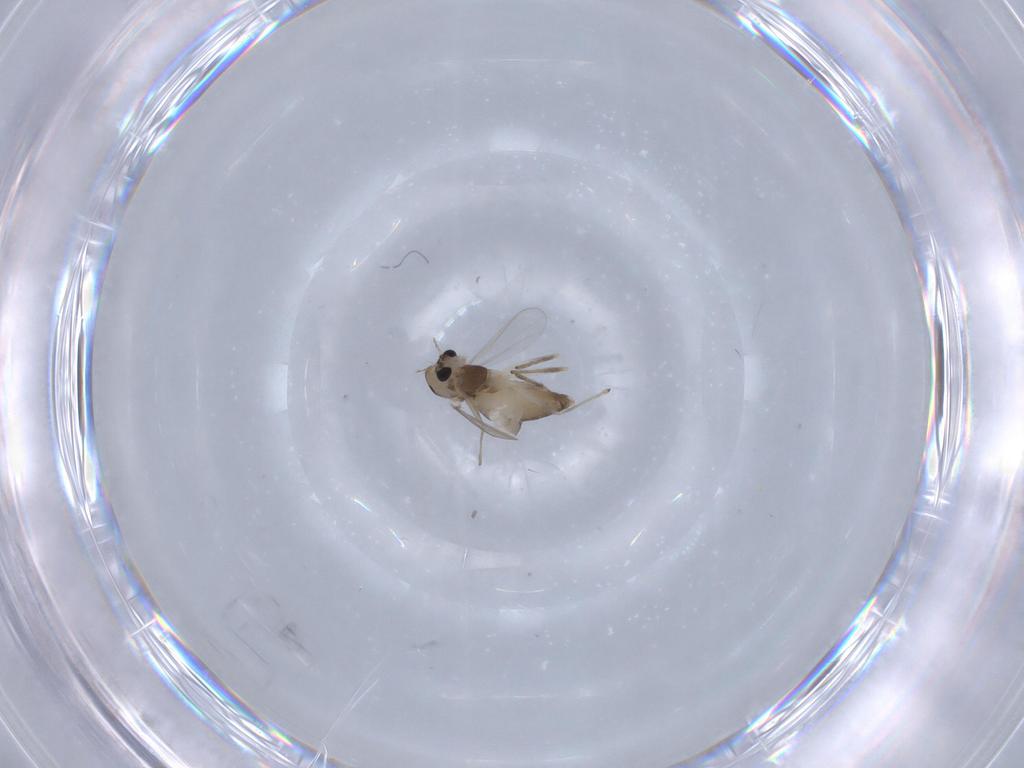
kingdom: Animalia
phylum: Arthropoda
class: Insecta
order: Diptera
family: Chironomidae
